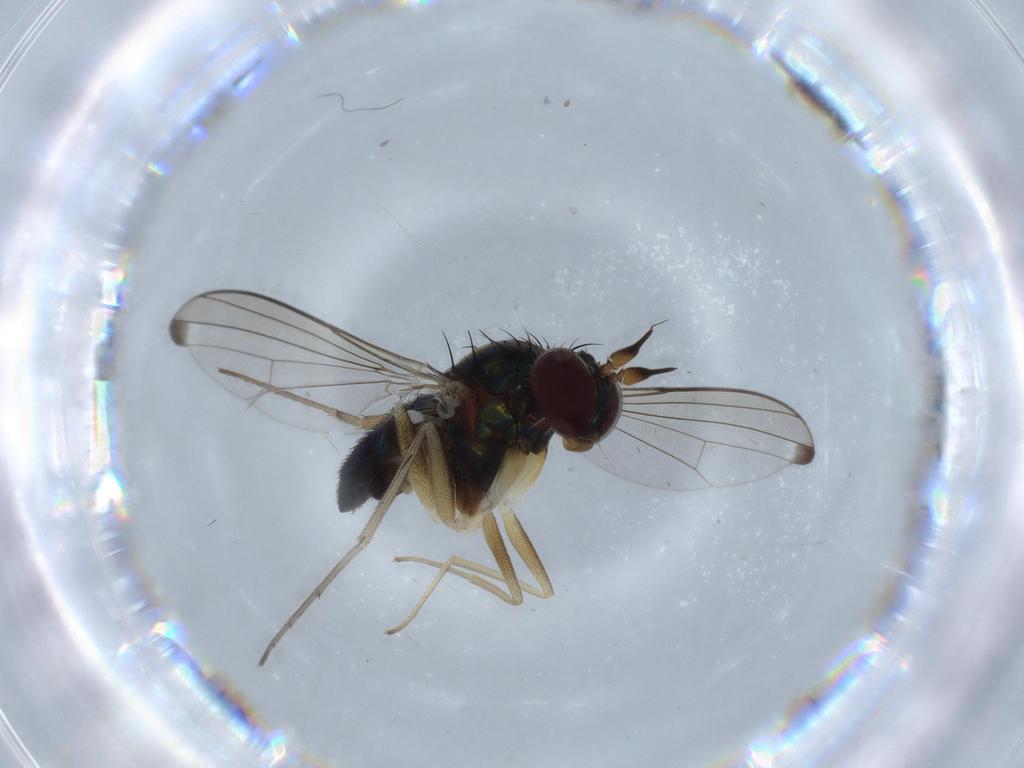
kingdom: Animalia
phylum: Arthropoda
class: Insecta
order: Diptera
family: Dolichopodidae
